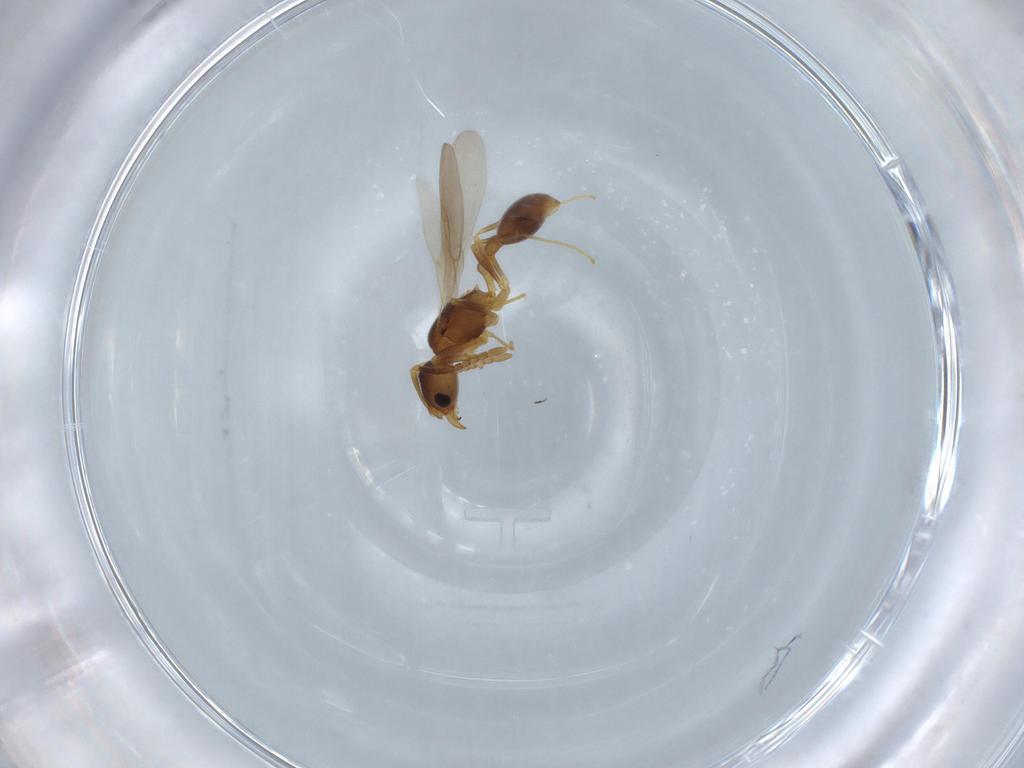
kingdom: Animalia
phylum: Arthropoda
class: Insecta
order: Hymenoptera
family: Formicidae
